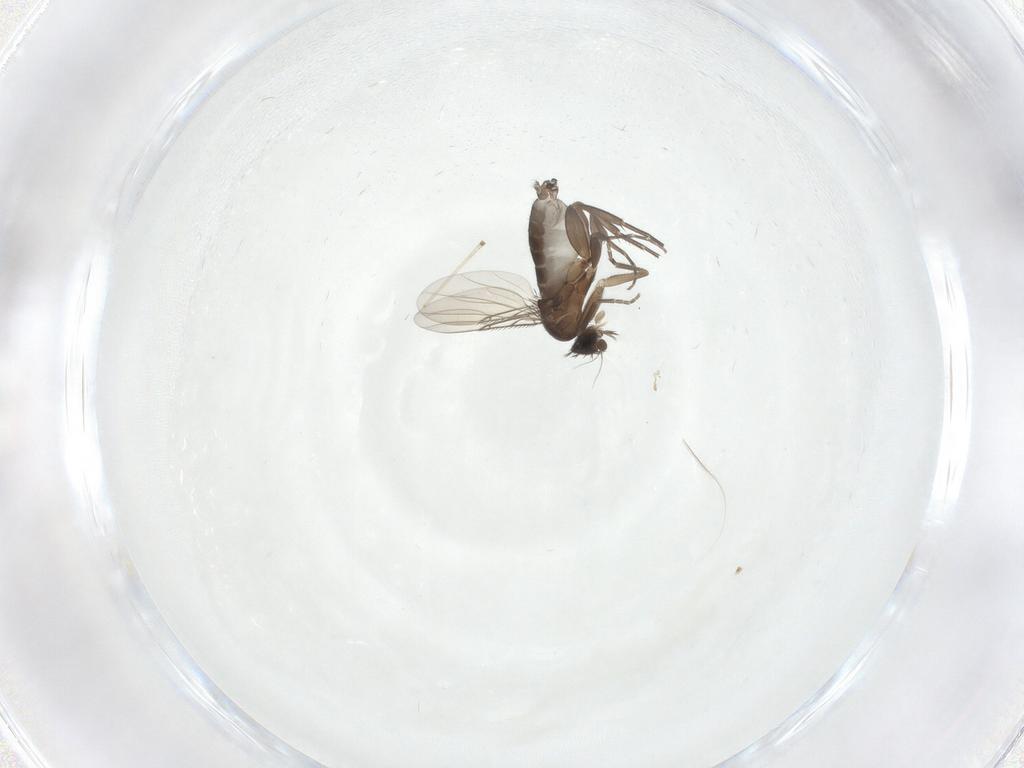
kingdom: Animalia
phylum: Arthropoda
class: Insecta
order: Diptera
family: Phoridae
